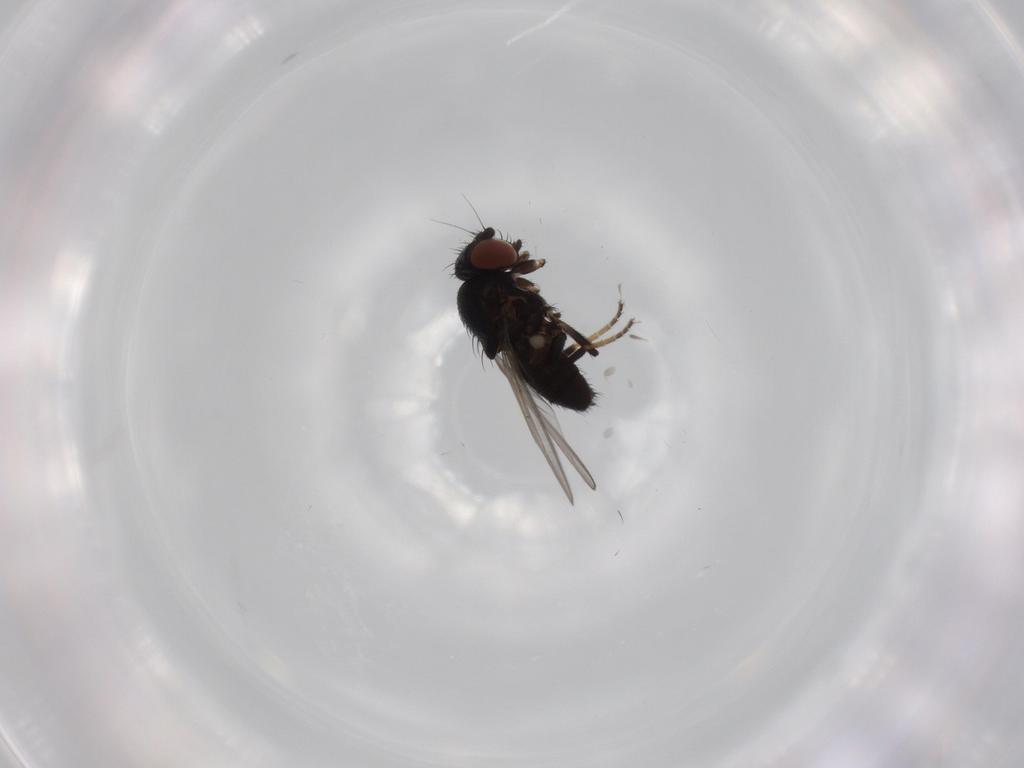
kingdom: Animalia
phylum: Arthropoda
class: Insecta
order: Diptera
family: Milichiidae
